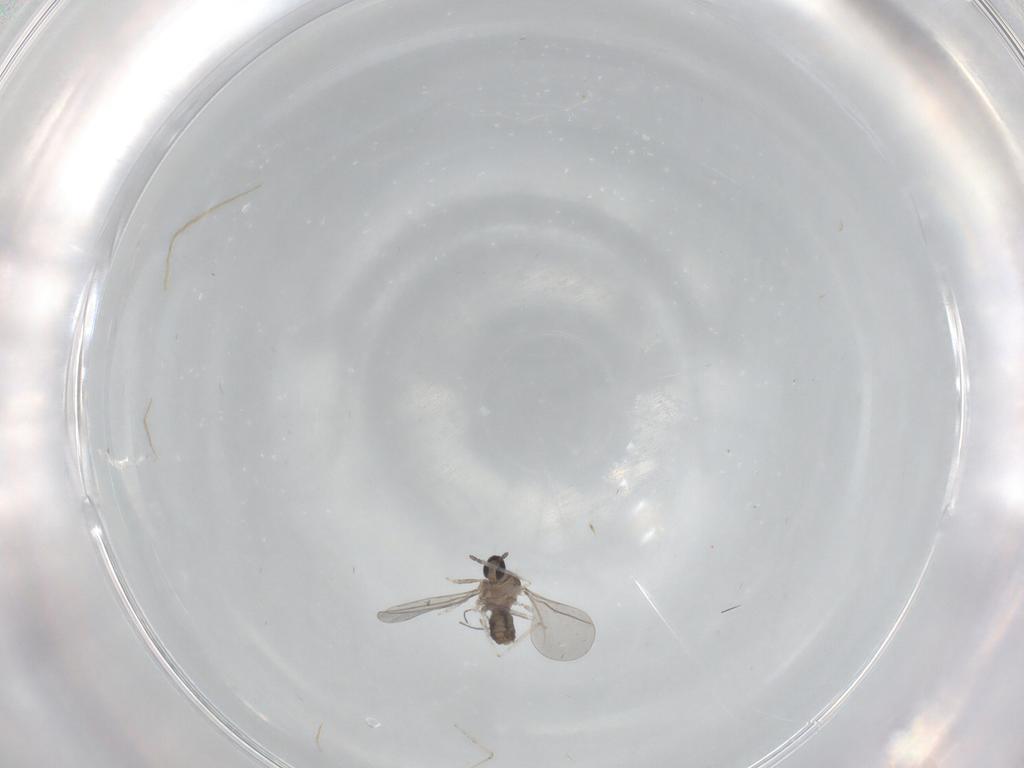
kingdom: Animalia
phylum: Arthropoda
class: Insecta
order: Diptera
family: Cecidomyiidae
